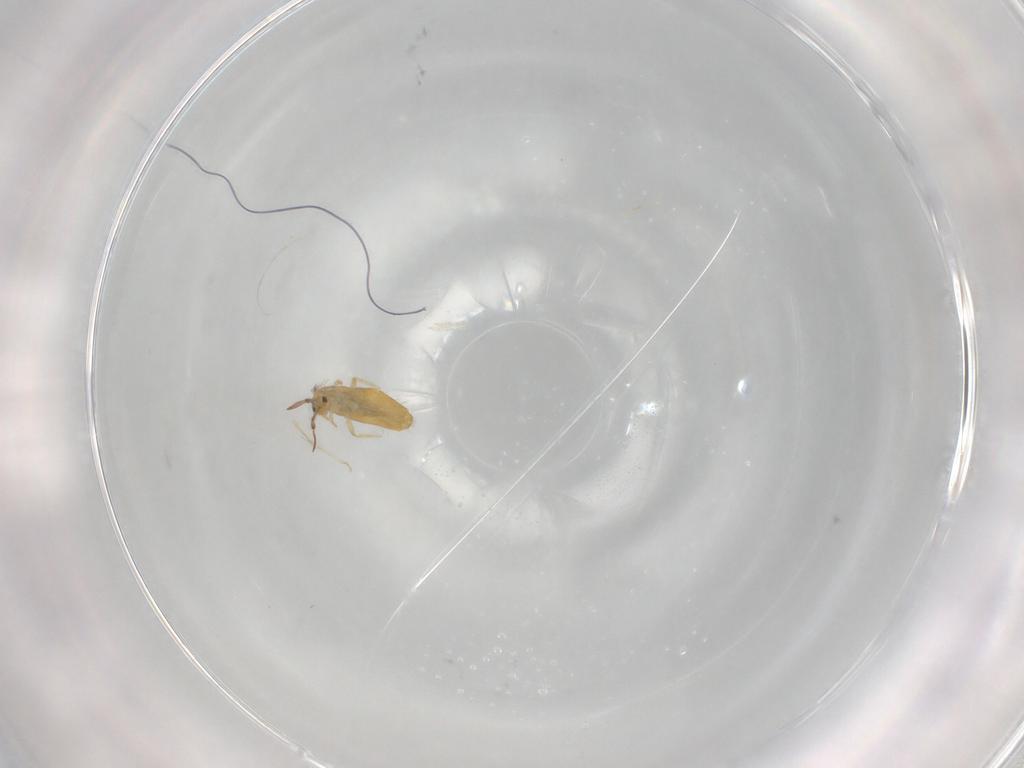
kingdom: Animalia
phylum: Arthropoda
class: Collembola
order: Entomobryomorpha
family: Entomobryidae
